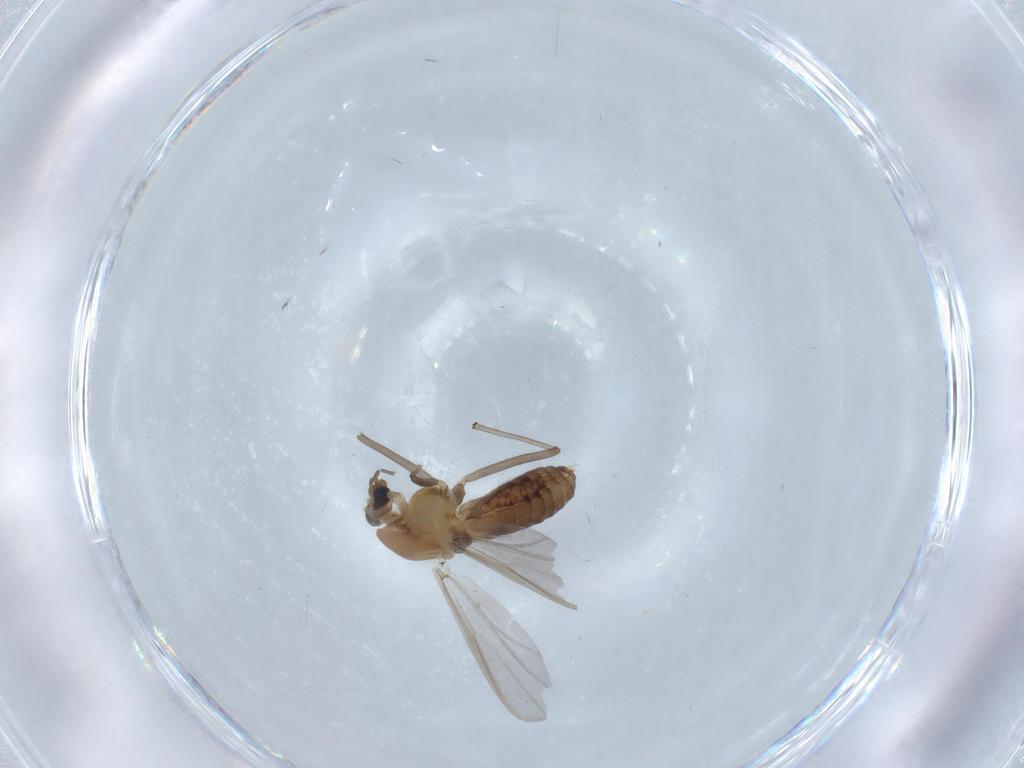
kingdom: Animalia
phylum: Arthropoda
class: Insecta
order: Diptera
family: Chironomidae
